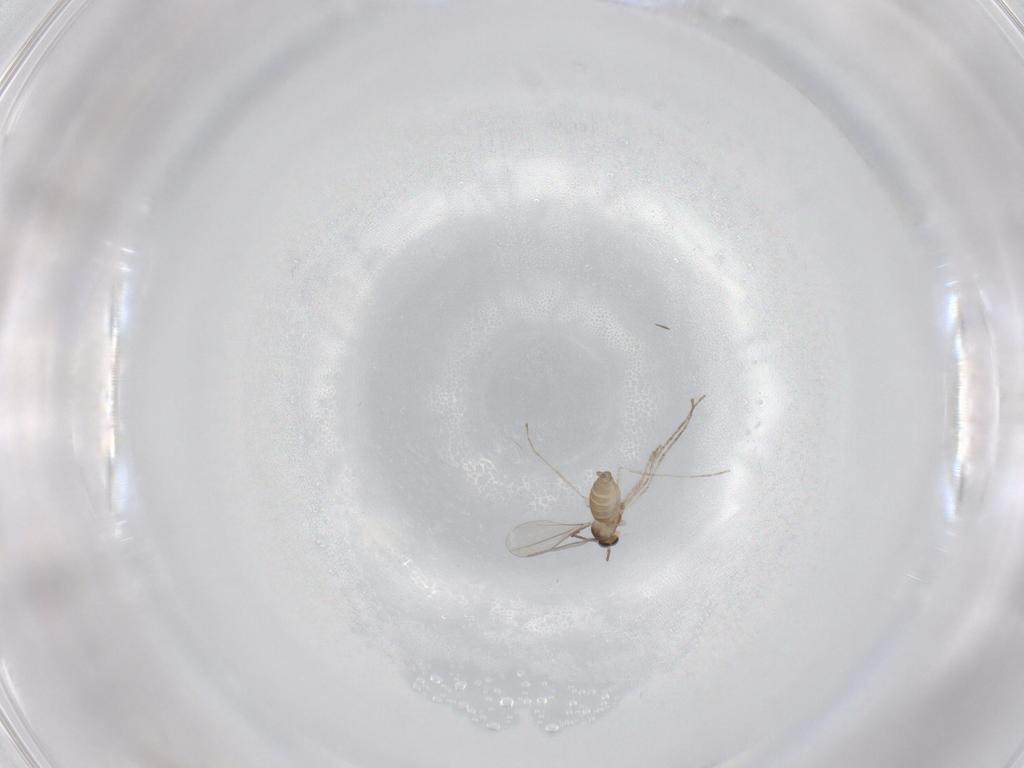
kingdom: Animalia
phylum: Arthropoda
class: Insecta
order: Diptera
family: Cecidomyiidae
